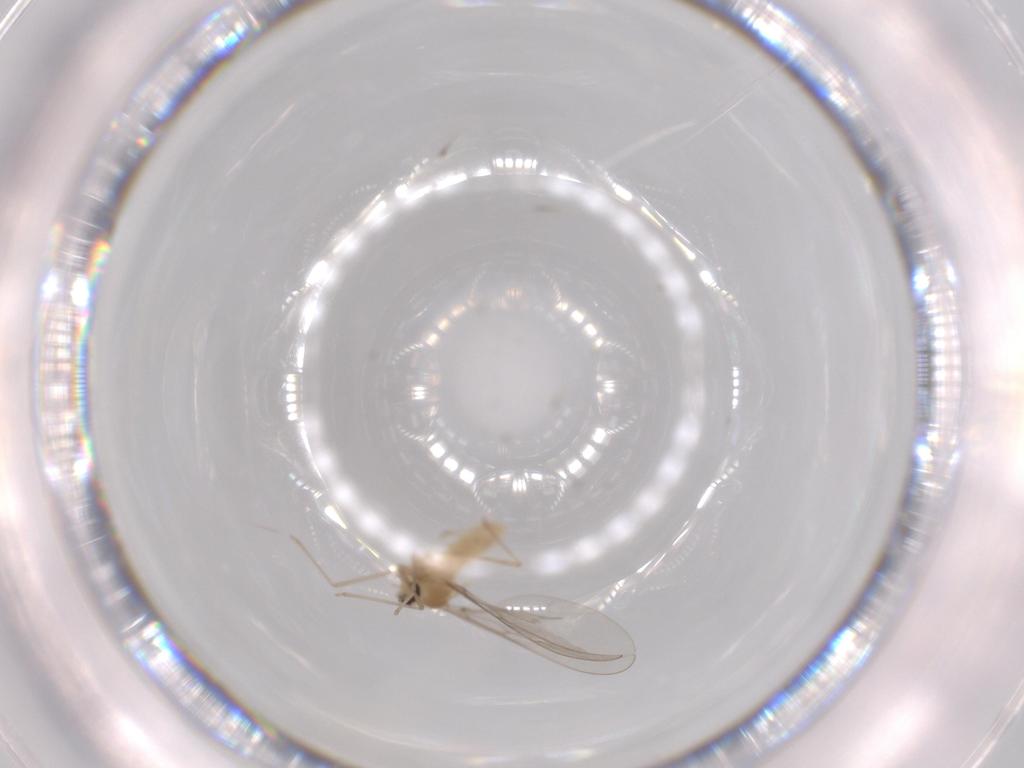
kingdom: Animalia
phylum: Arthropoda
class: Insecta
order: Diptera
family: Cecidomyiidae
